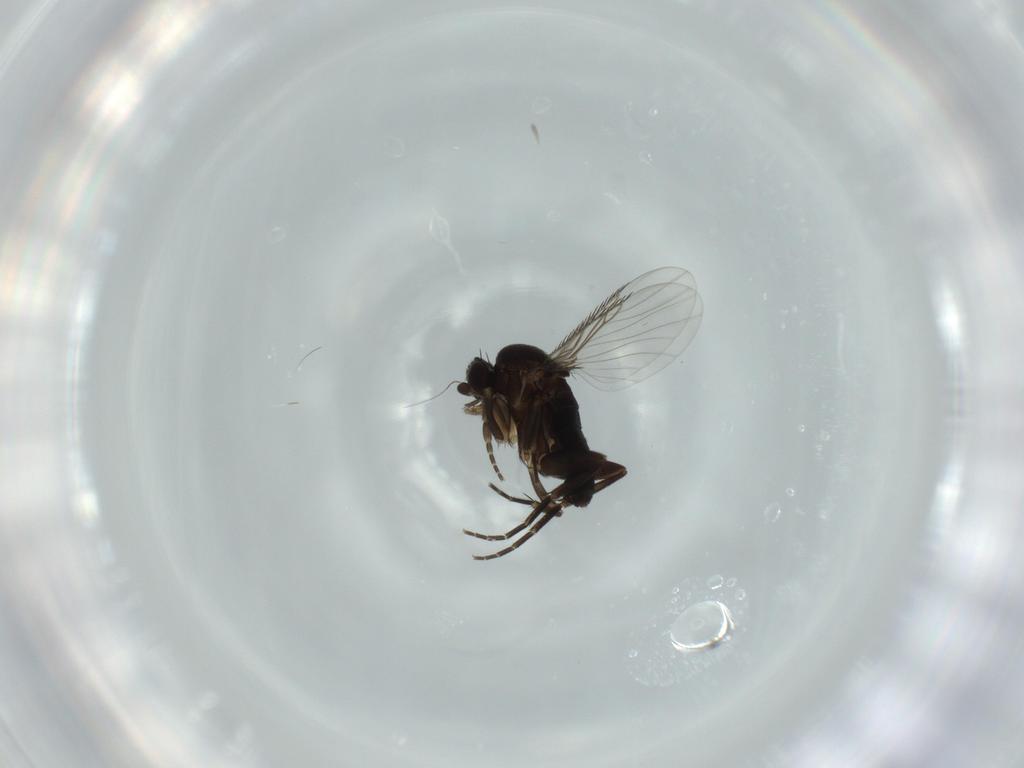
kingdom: Animalia
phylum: Arthropoda
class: Insecta
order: Diptera
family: Phoridae
